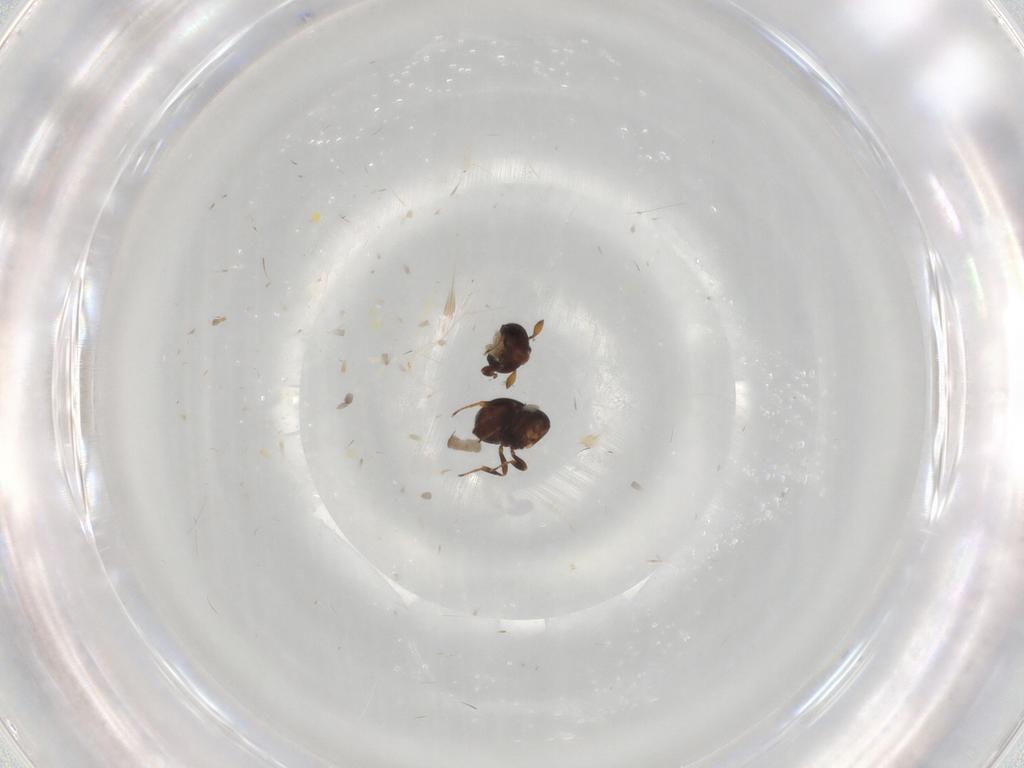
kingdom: Animalia
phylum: Arthropoda
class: Insecta
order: Hymenoptera
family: Scelionidae
